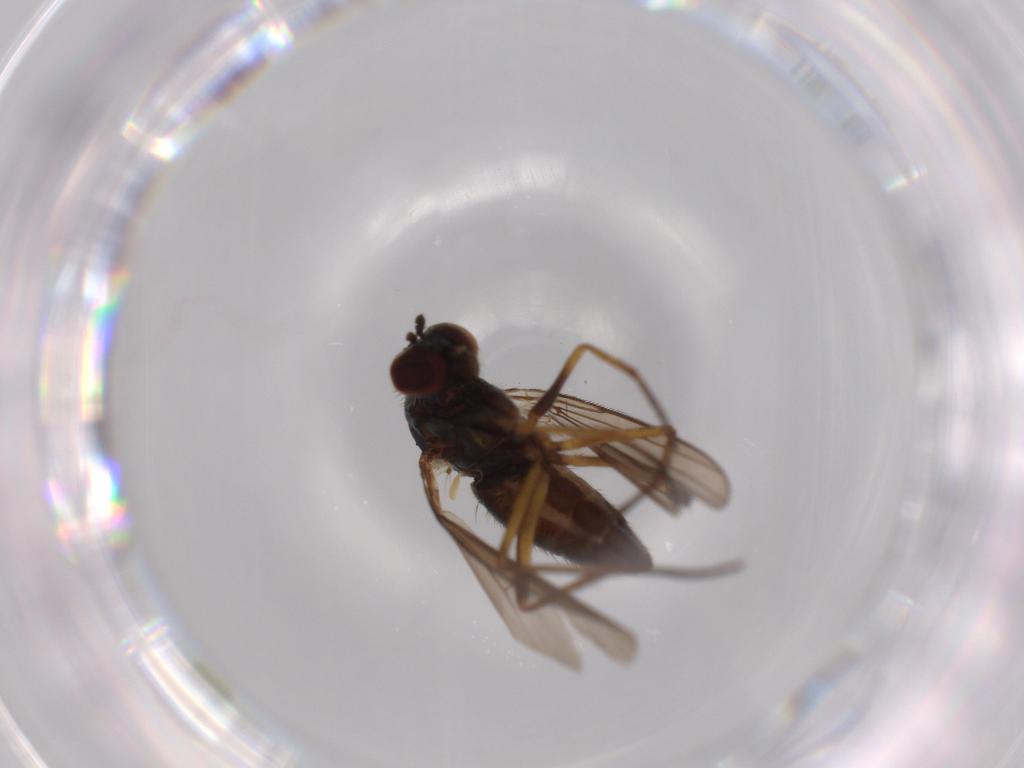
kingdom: Animalia
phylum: Arthropoda
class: Insecta
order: Diptera
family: Dolichopodidae
